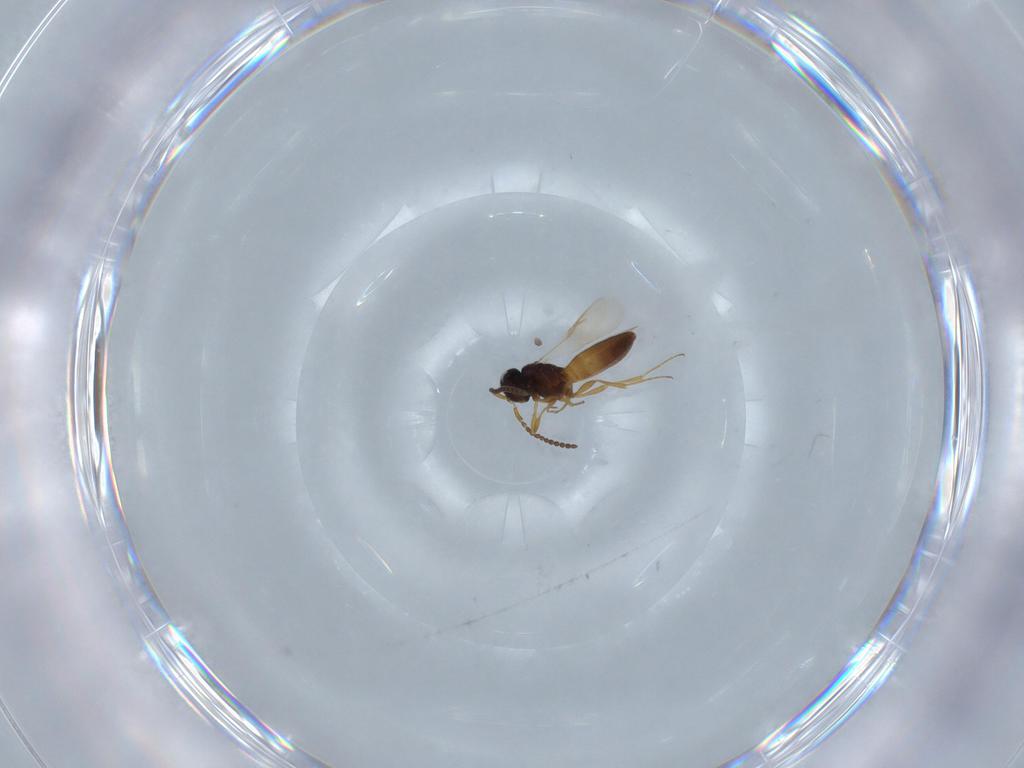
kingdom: Animalia
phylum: Arthropoda
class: Insecta
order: Hymenoptera
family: Scelionidae
